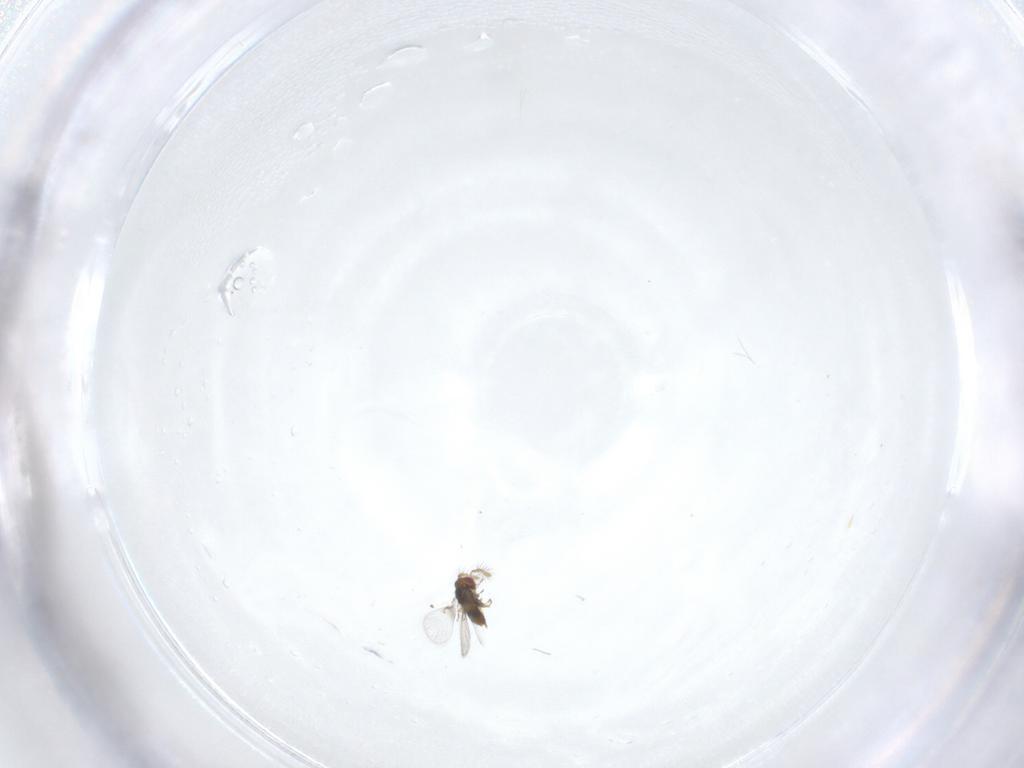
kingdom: Animalia
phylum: Arthropoda
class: Insecta
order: Hymenoptera
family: Trichogrammatidae
